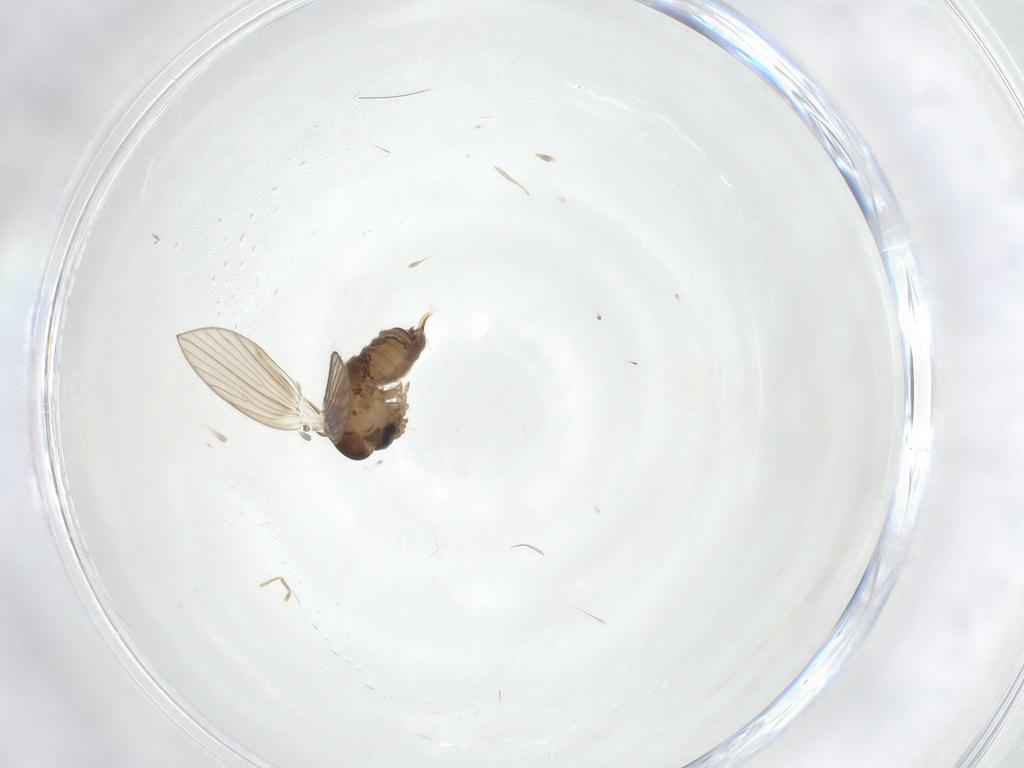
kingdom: Animalia
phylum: Arthropoda
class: Insecta
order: Diptera
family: Psychodidae
